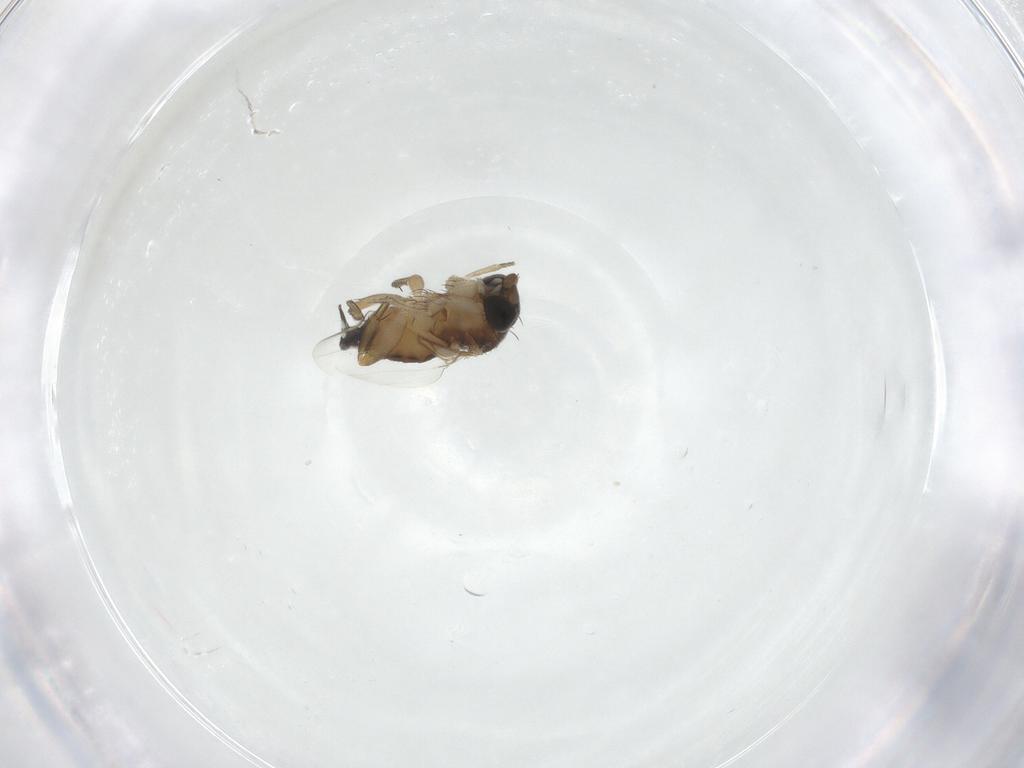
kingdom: Animalia
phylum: Arthropoda
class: Insecta
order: Diptera
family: Phoridae
